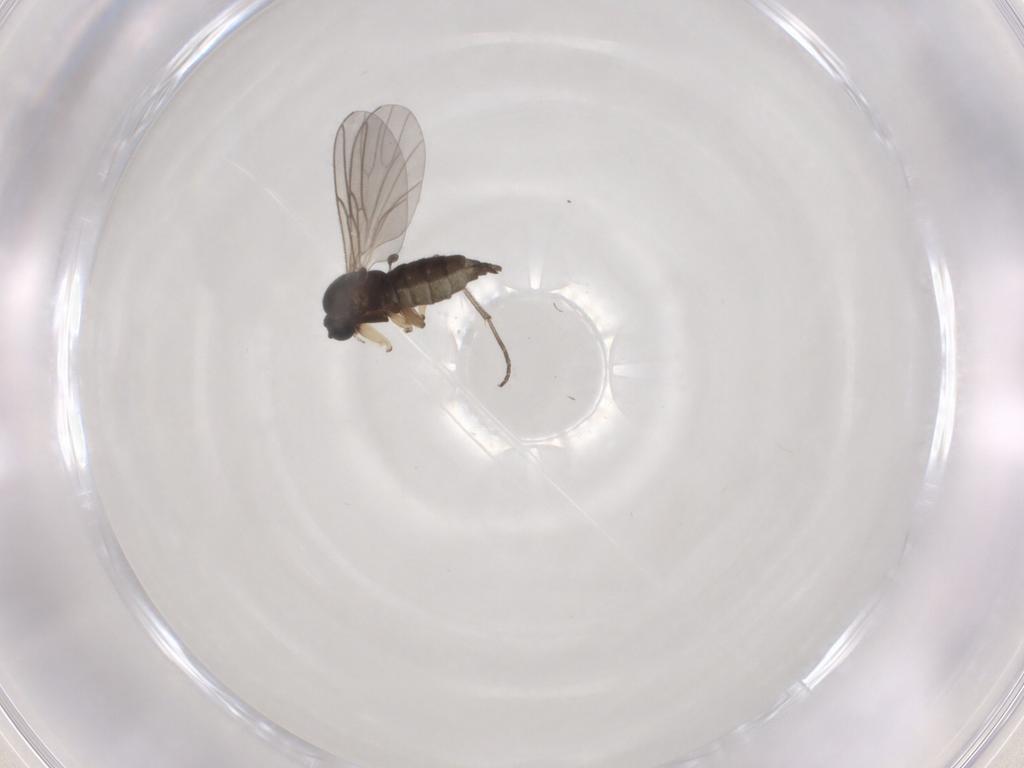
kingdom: Animalia
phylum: Arthropoda
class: Insecta
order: Diptera
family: Sciaridae
